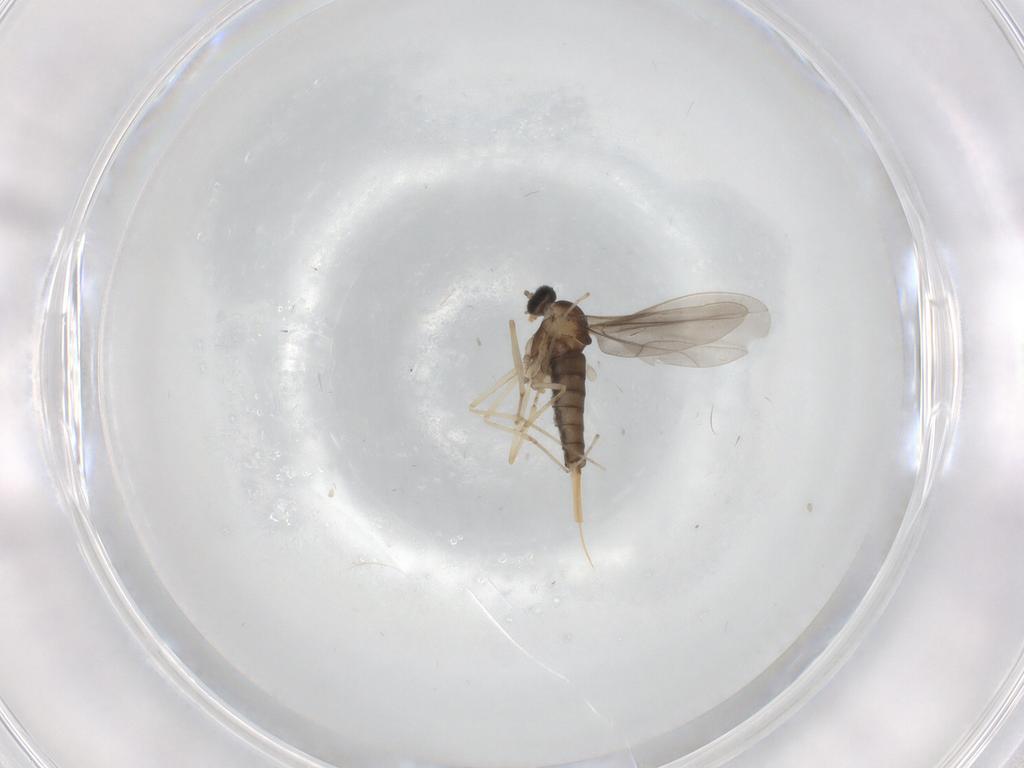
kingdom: Animalia
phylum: Arthropoda
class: Insecta
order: Diptera
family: Cecidomyiidae
